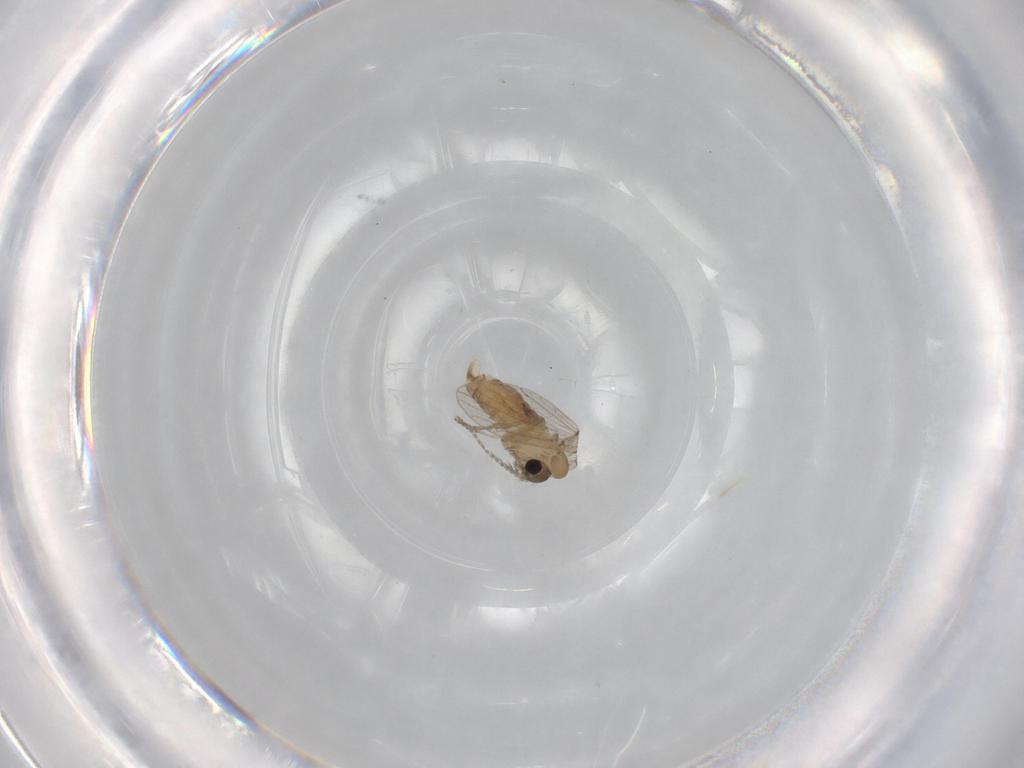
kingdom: Animalia
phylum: Arthropoda
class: Insecta
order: Diptera
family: Psychodidae
